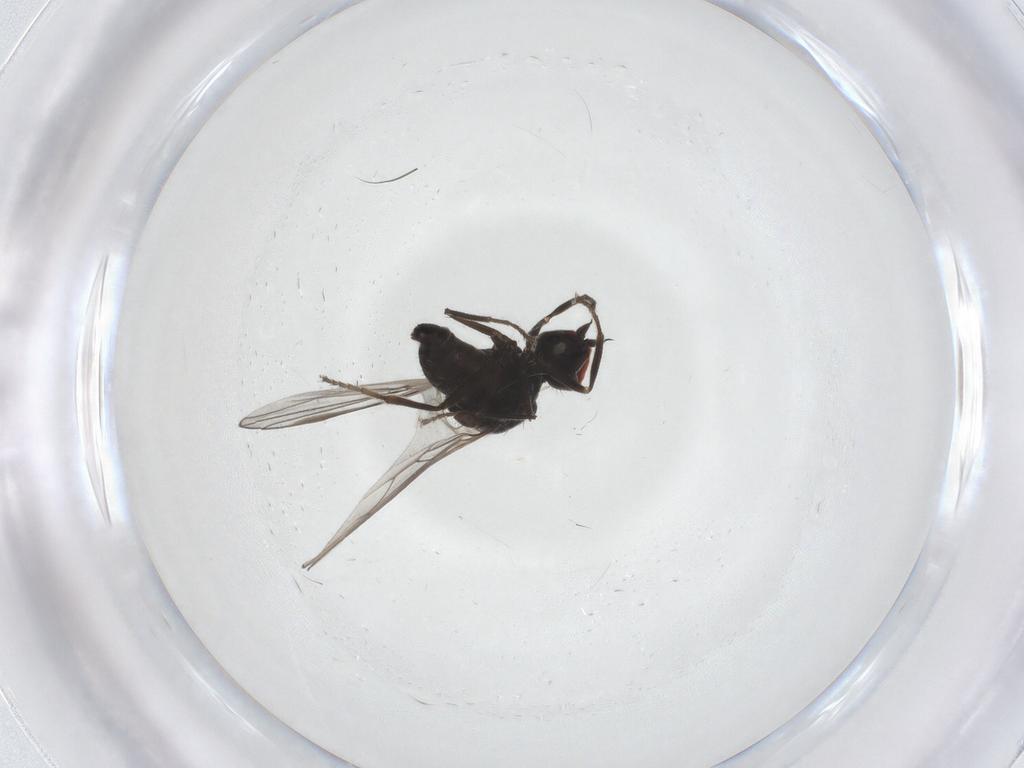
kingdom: Animalia
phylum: Arthropoda
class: Insecta
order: Diptera
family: Hybotidae
